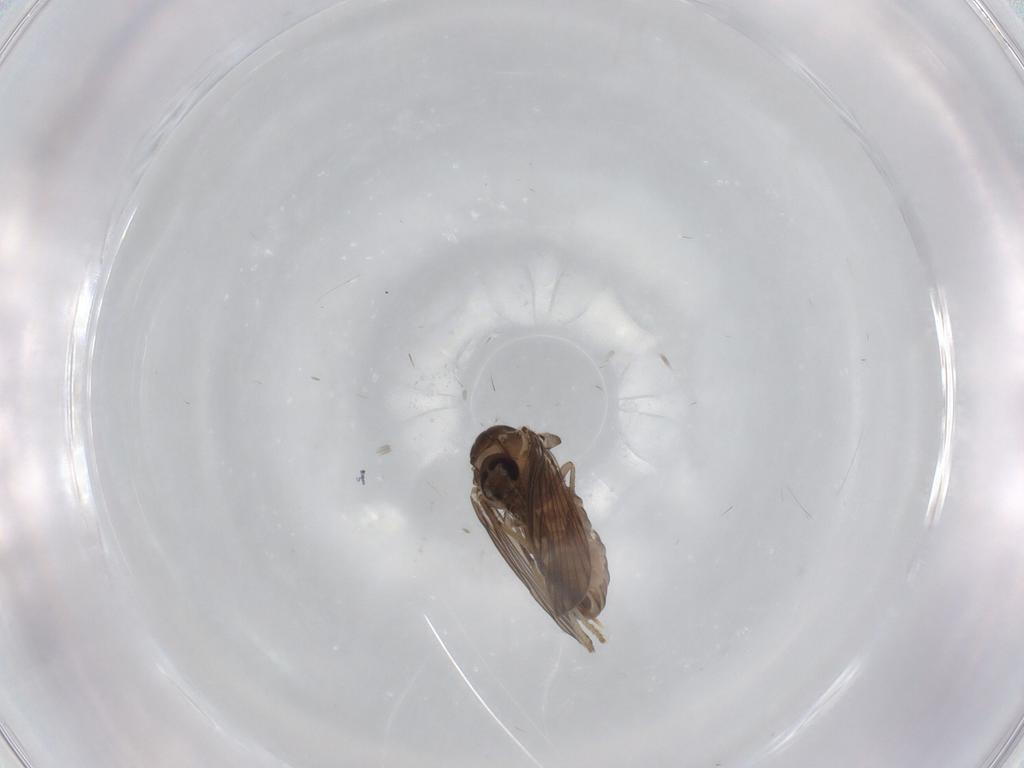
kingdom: Animalia
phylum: Arthropoda
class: Insecta
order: Diptera
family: Psychodidae
